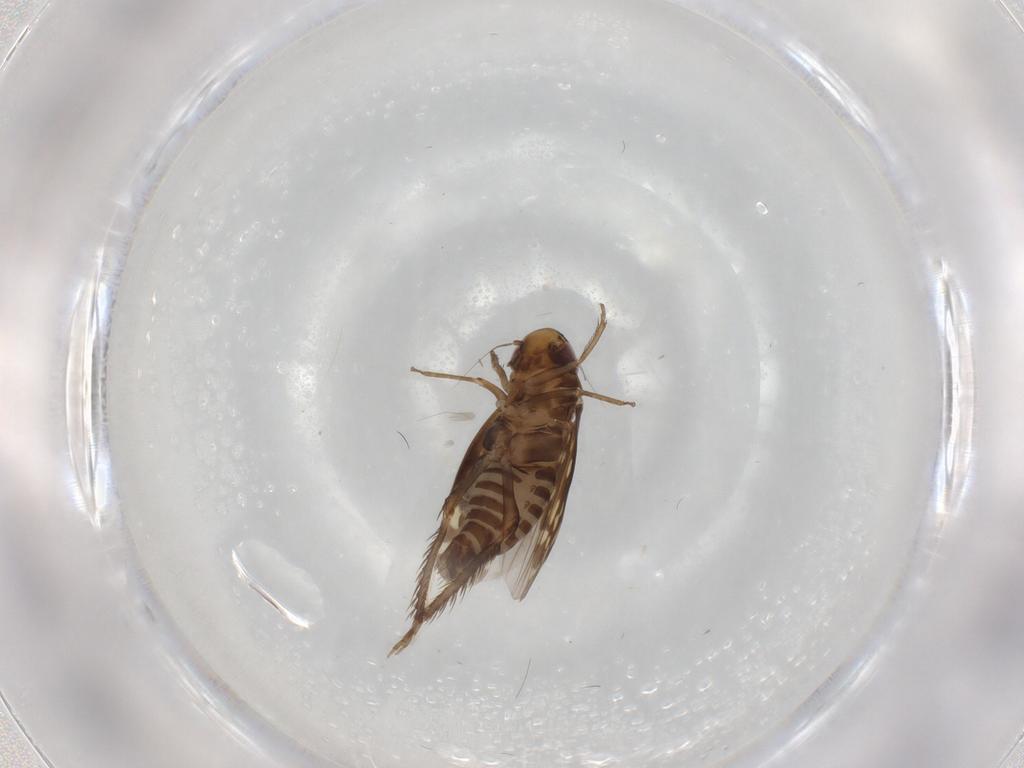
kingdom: Animalia
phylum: Arthropoda
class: Insecta
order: Hemiptera
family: Cicadellidae
